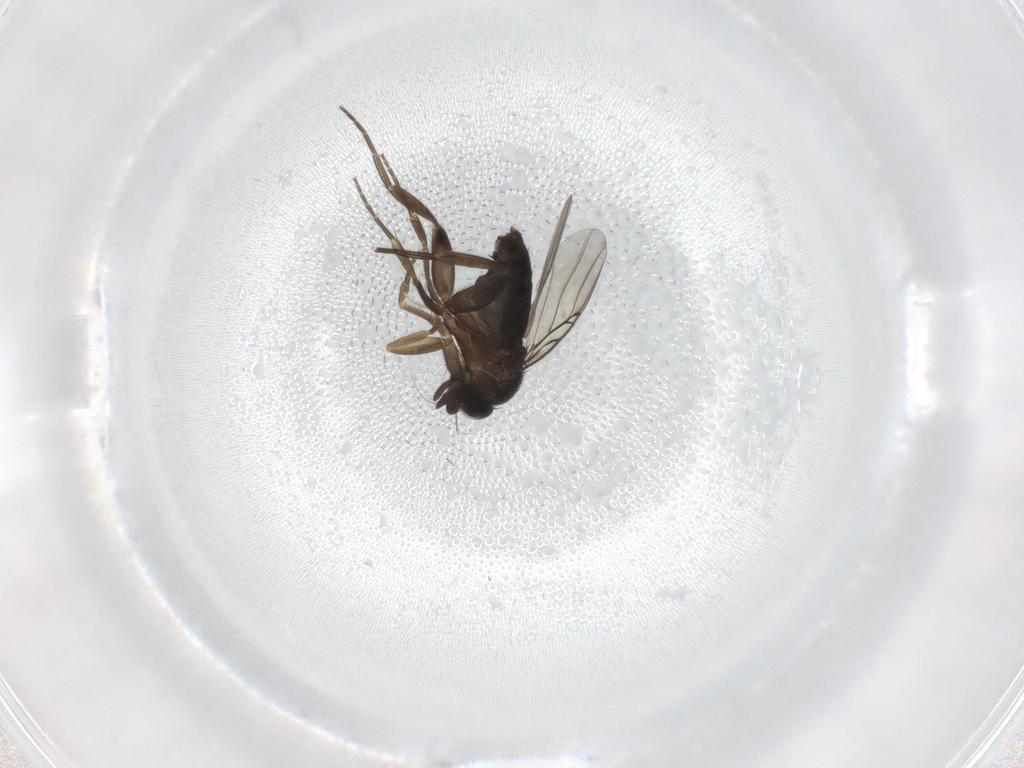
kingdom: Animalia
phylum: Arthropoda
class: Insecta
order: Diptera
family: Phoridae
